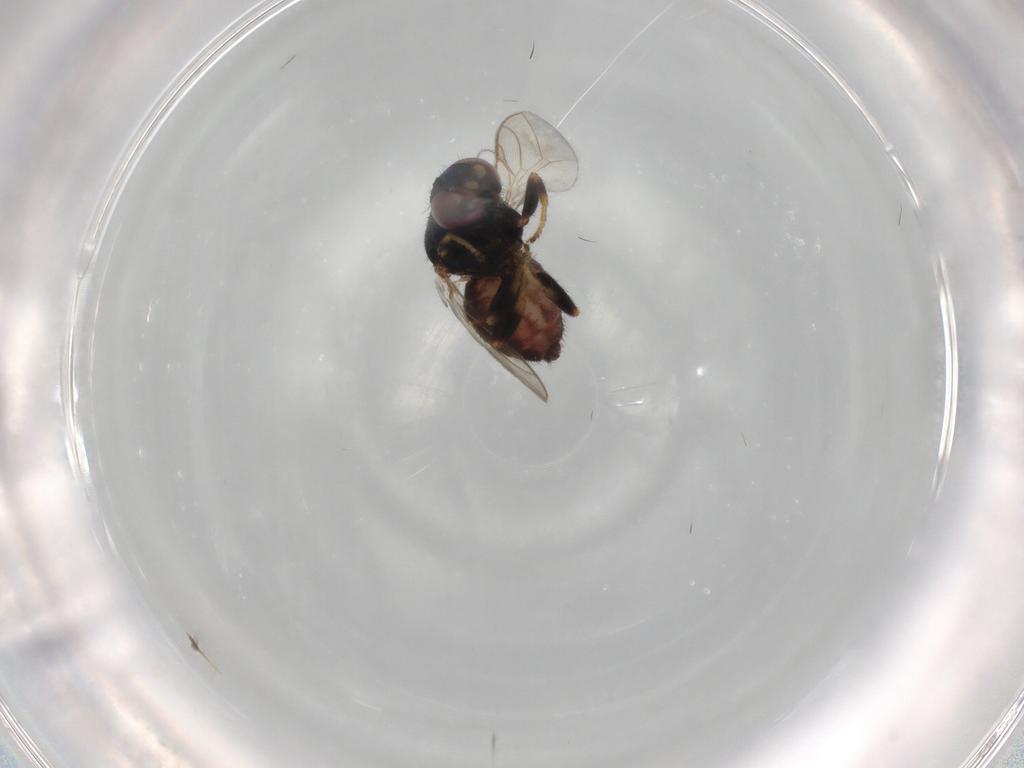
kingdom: Animalia
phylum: Arthropoda
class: Insecta
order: Diptera
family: Chloropidae
